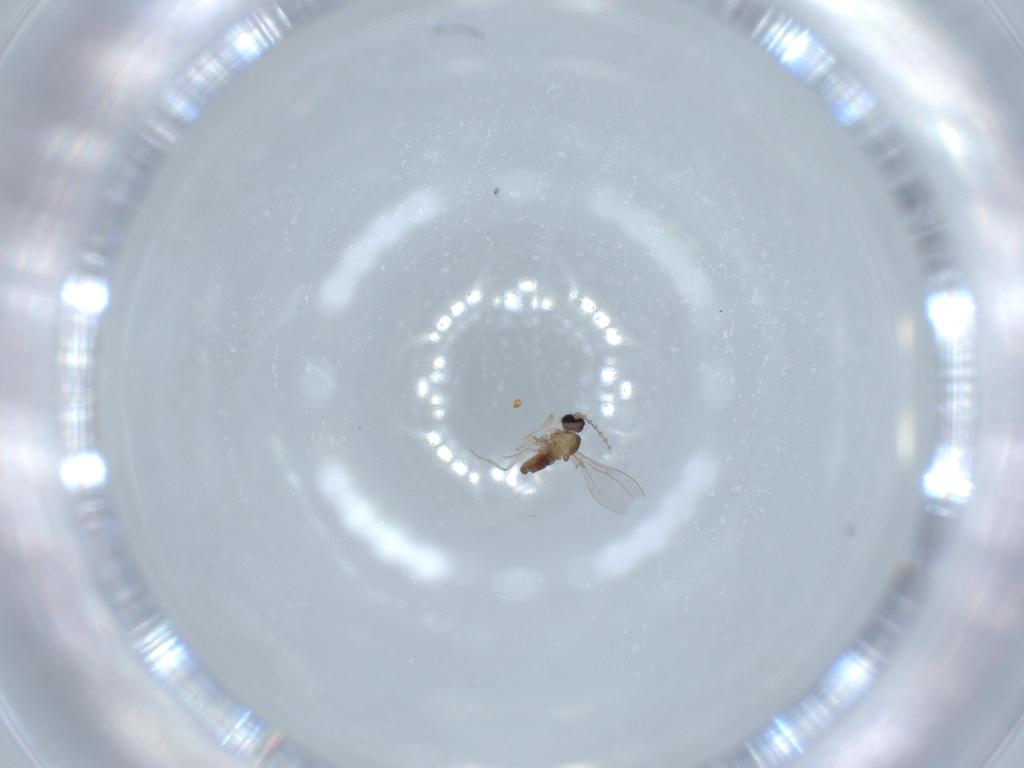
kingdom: Animalia
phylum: Arthropoda
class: Insecta
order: Diptera
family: Cecidomyiidae
